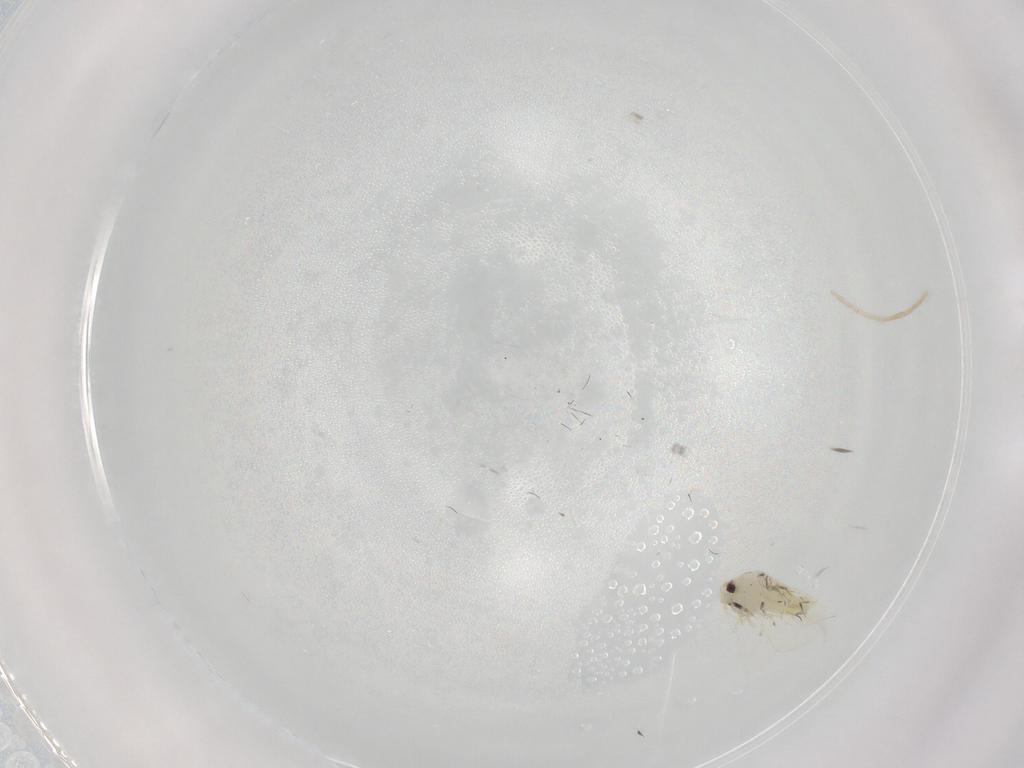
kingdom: Animalia
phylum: Arthropoda
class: Insecta
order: Hemiptera
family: Aleyrodidae
